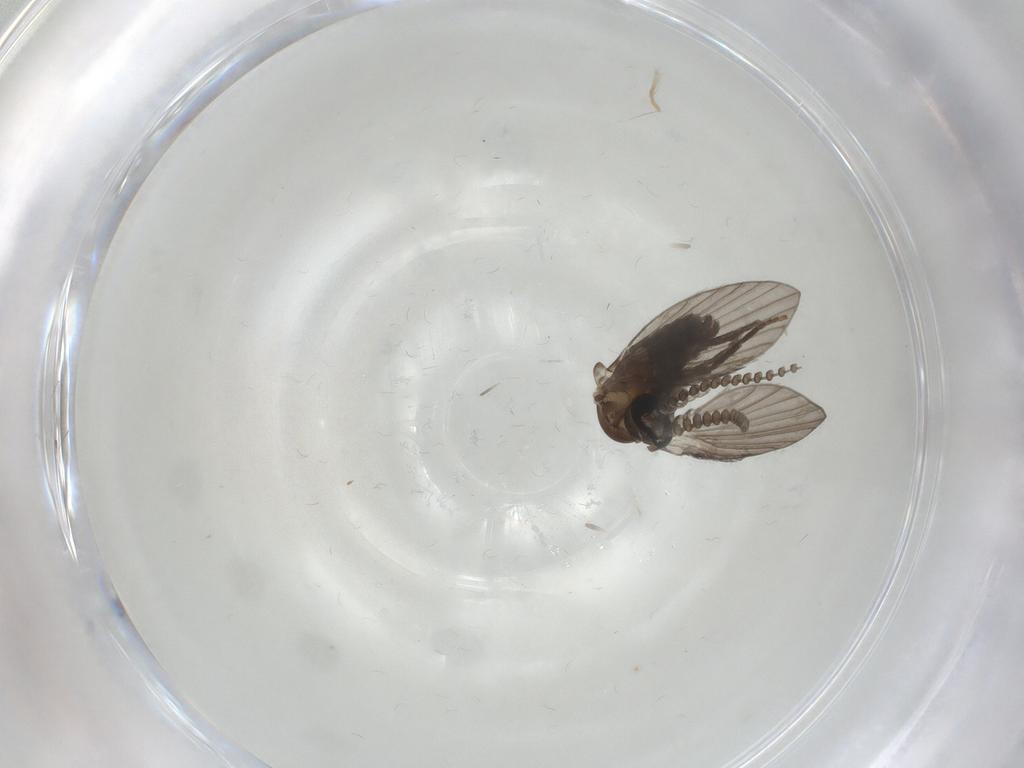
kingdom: Animalia
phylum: Arthropoda
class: Insecta
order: Diptera
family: Psychodidae
